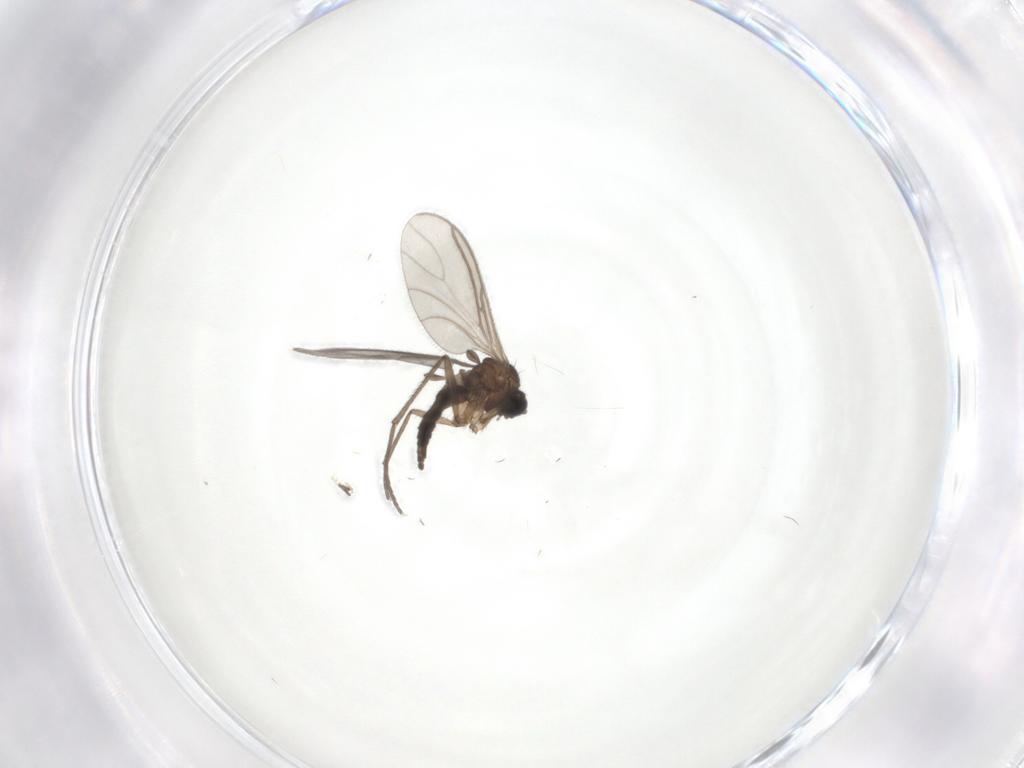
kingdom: Animalia
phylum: Arthropoda
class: Insecta
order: Diptera
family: Sciaridae
